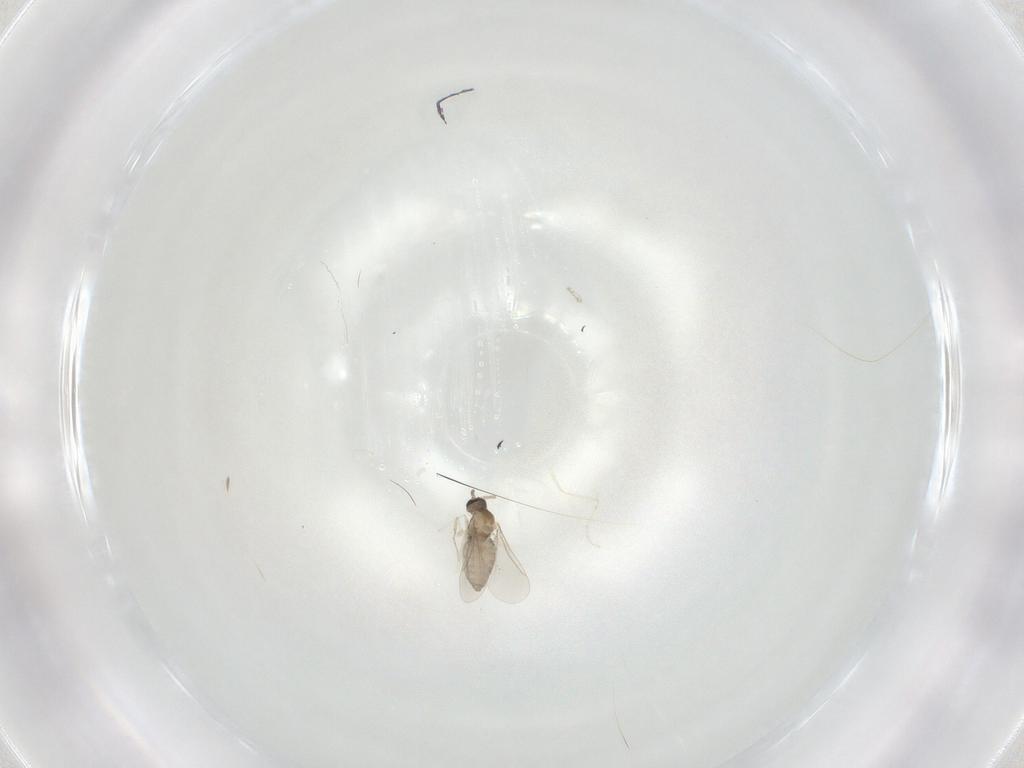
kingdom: Animalia
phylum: Arthropoda
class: Insecta
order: Diptera
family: Cecidomyiidae
